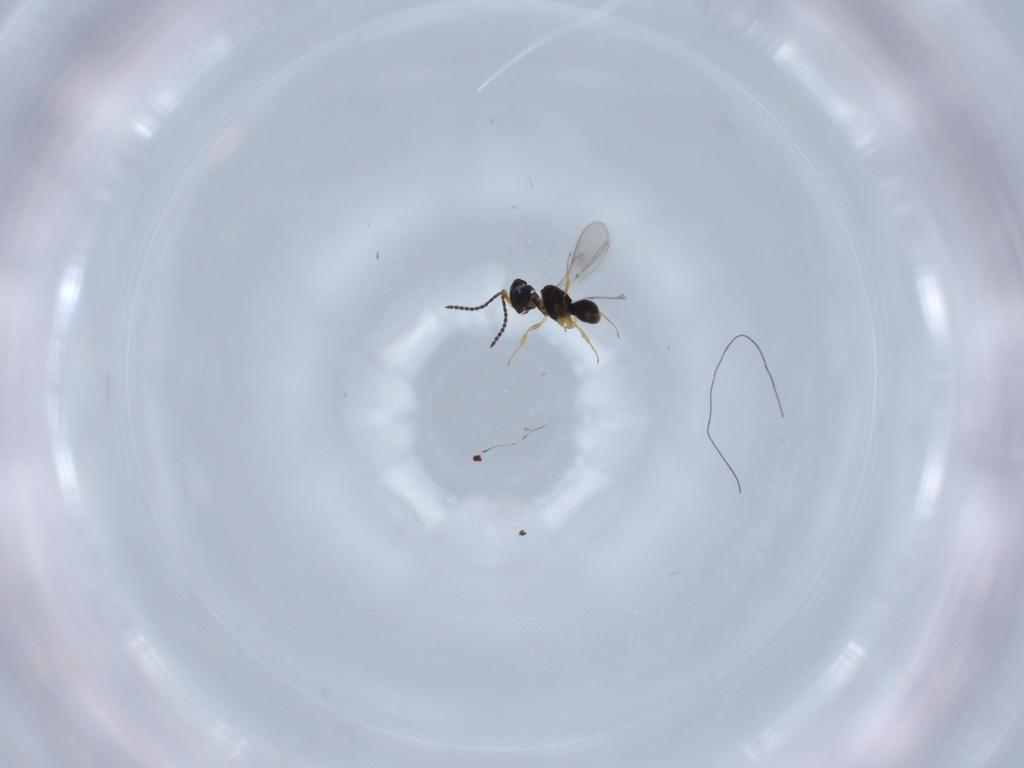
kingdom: Animalia
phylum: Arthropoda
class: Insecta
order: Hymenoptera
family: Scelionidae
